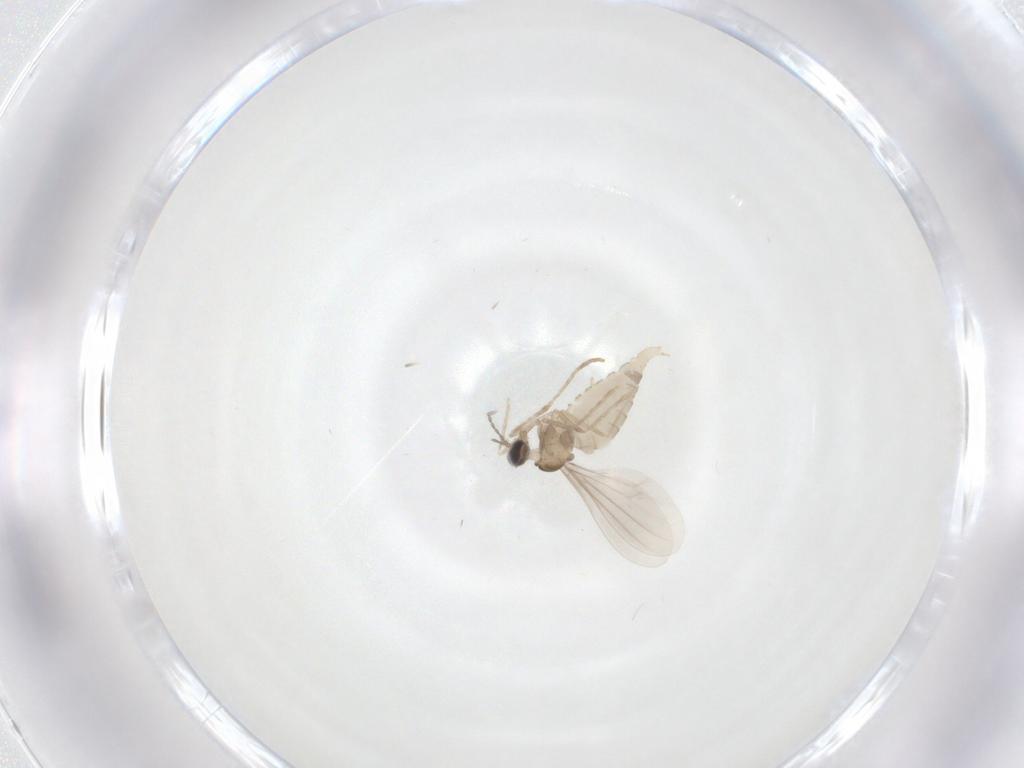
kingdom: Animalia
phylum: Arthropoda
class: Insecta
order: Diptera
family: Cecidomyiidae
